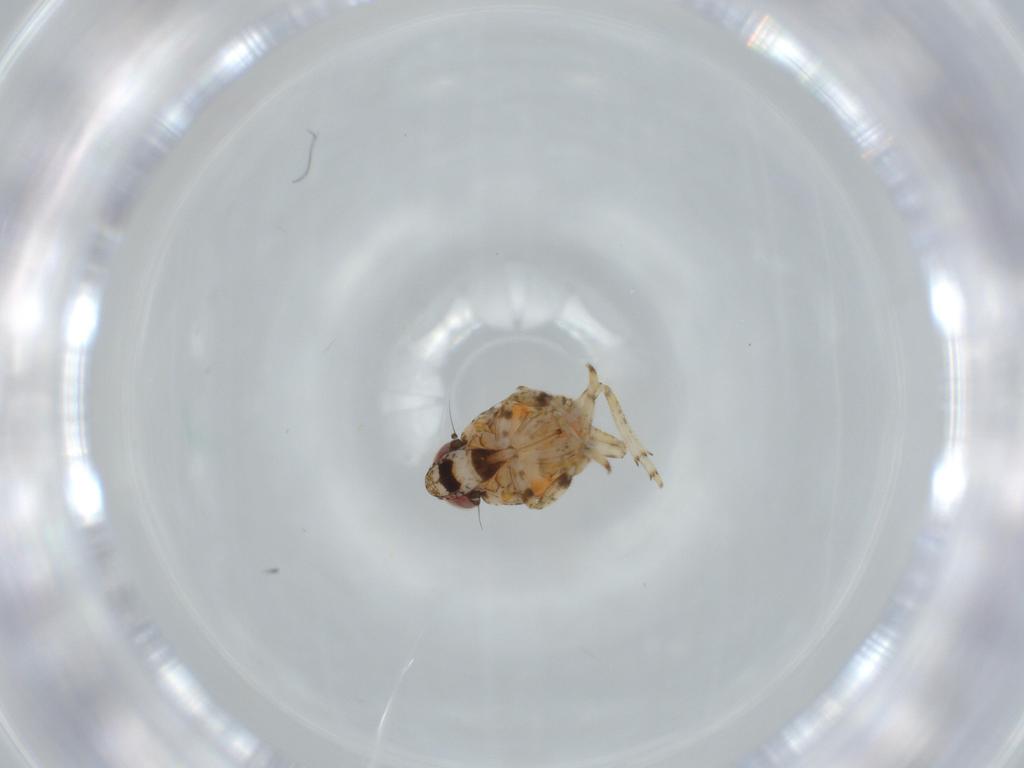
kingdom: Animalia
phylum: Arthropoda
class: Insecta
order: Hemiptera
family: Issidae
